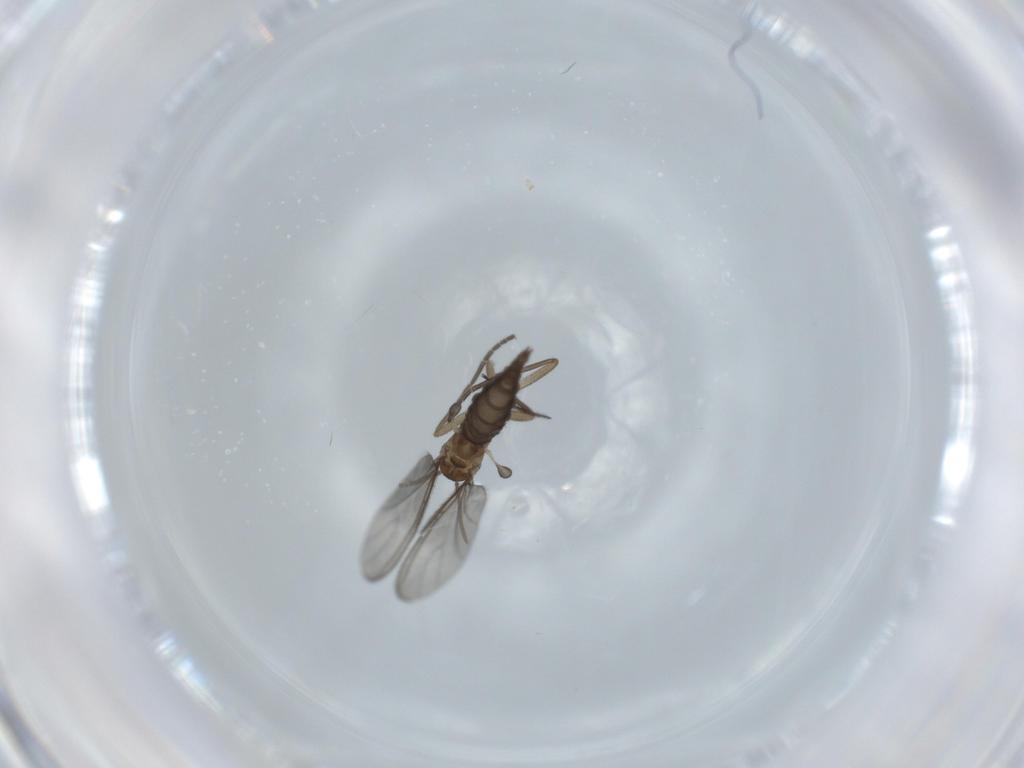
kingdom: Animalia
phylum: Arthropoda
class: Insecta
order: Diptera
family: Sciaridae
